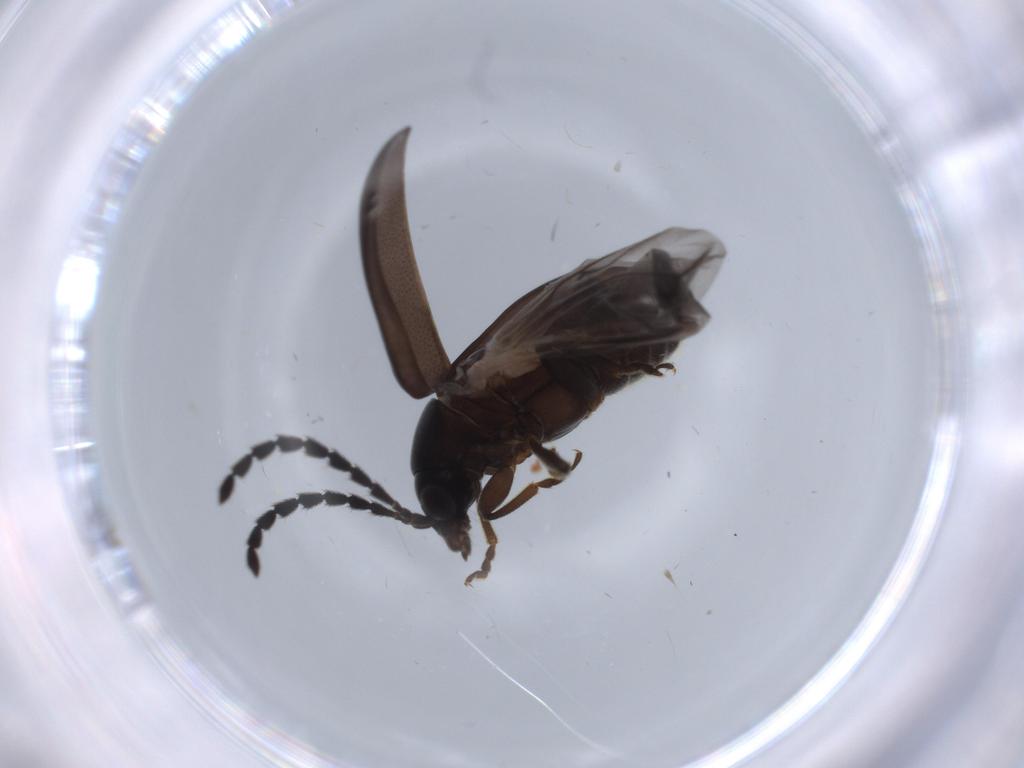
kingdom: Animalia
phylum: Arthropoda
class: Insecta
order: Coleoptera
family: Chrysomelidae
